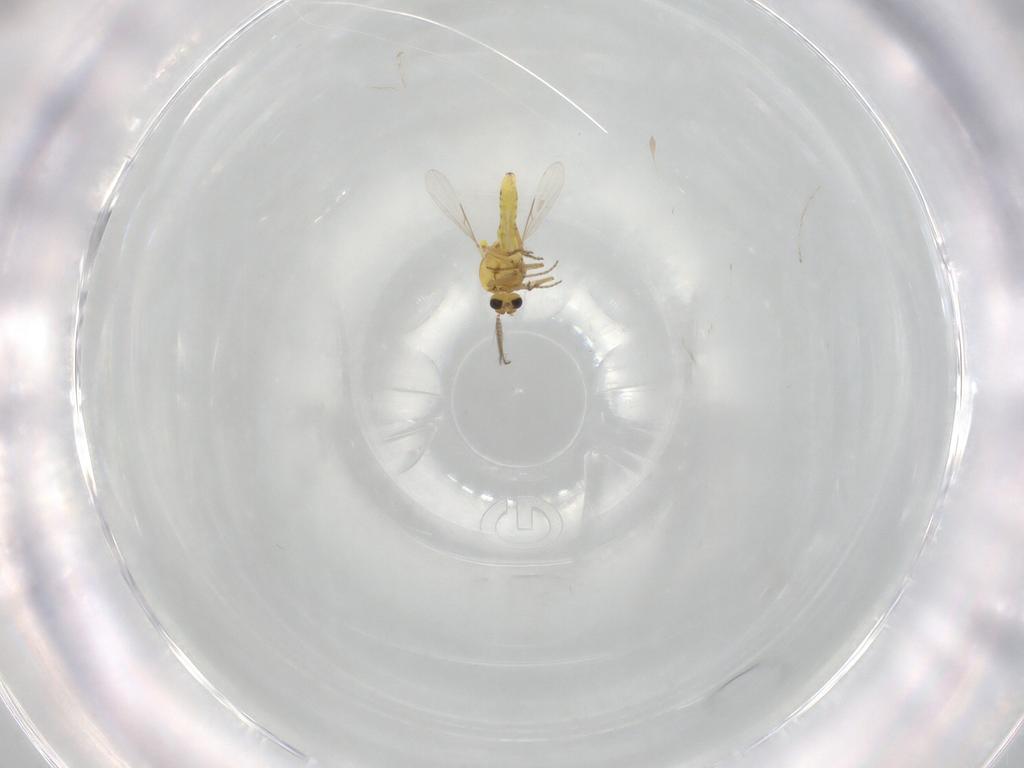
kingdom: Animalia
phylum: Arthropoda
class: Insecta
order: Diptera
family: Ceratopogonidae
